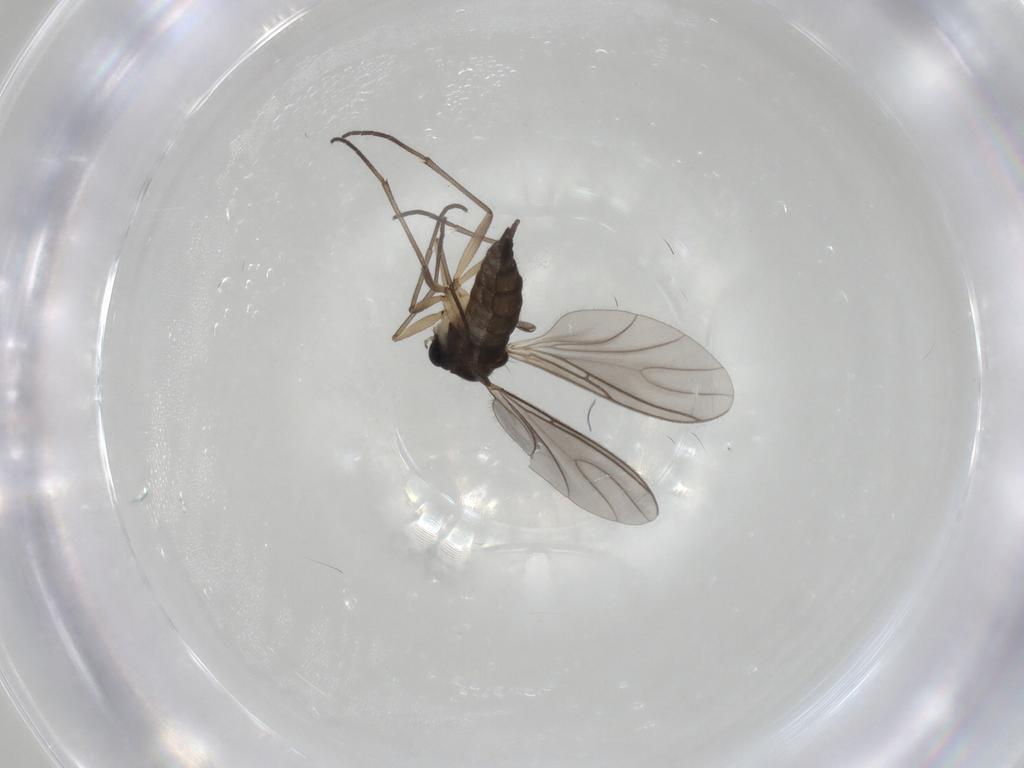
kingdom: Animalia
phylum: Arthropoda
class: Insecta
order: Diptera
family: Sciaridae
